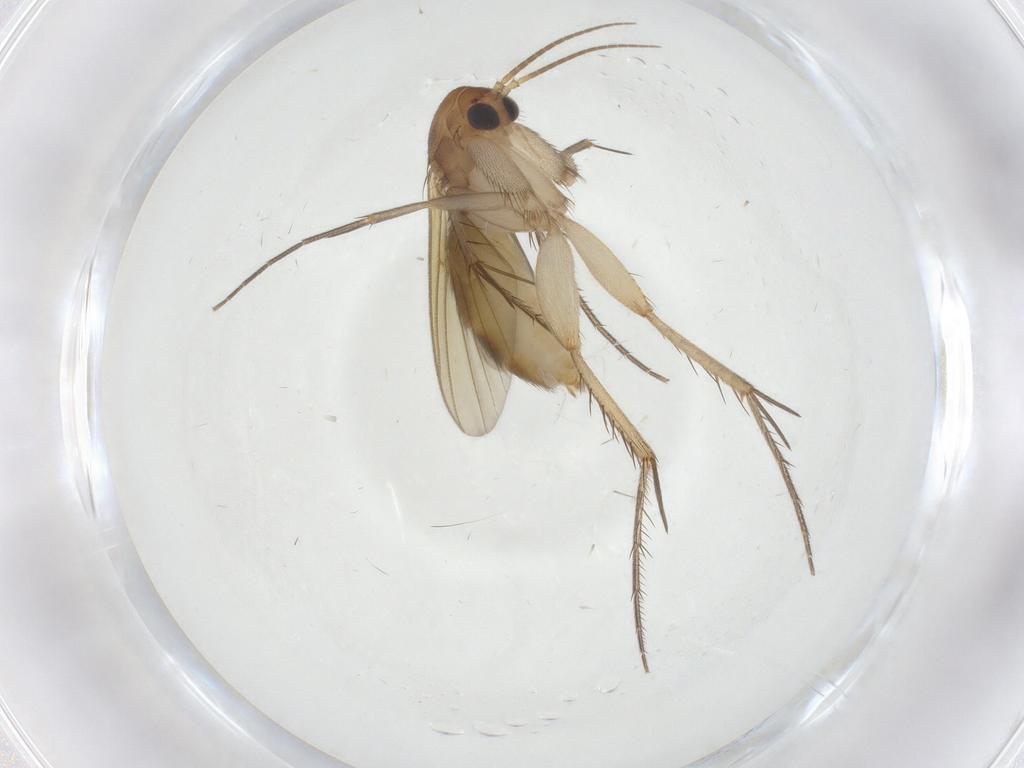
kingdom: Animalia
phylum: Arthropoda
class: Insecta
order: Diptera
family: Mycetophilidae
